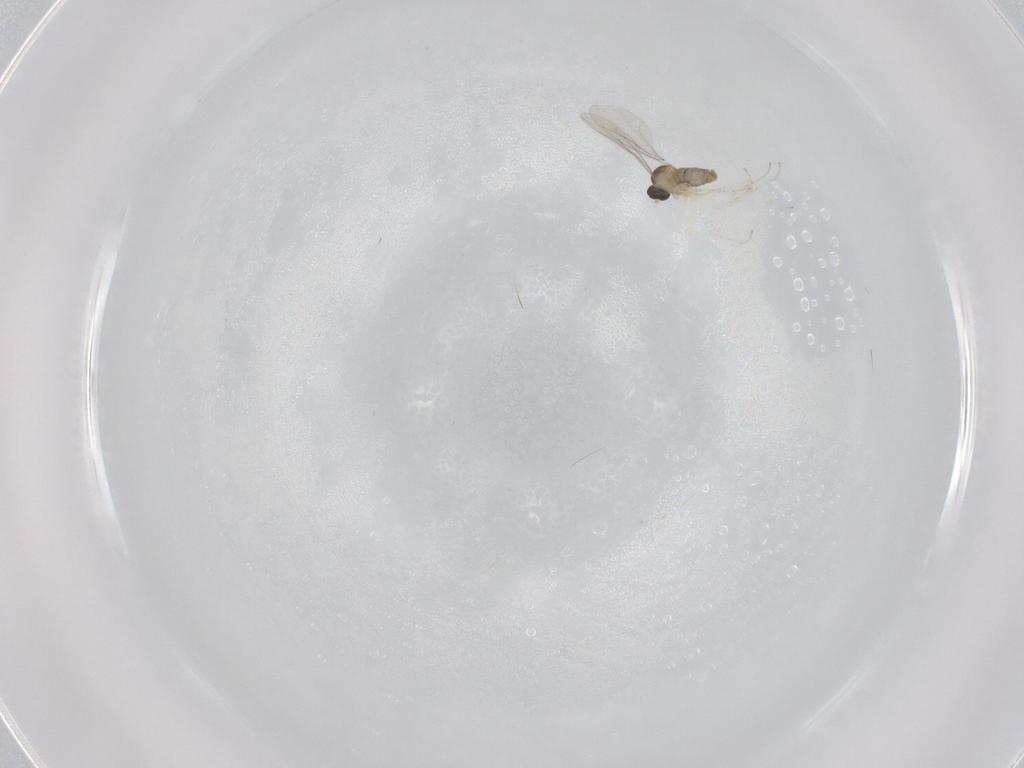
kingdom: Animalia
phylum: Arthropoda
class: Insecta
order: Diptera
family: Cecidomyiidae
